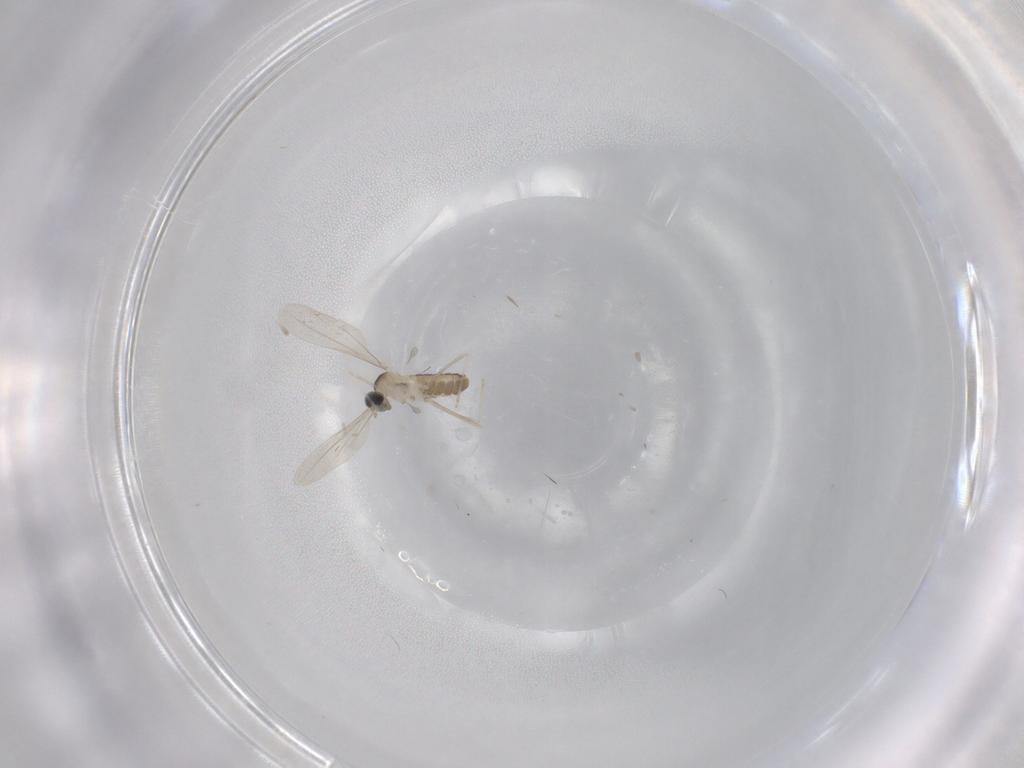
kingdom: Animalia
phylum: Arthropoda
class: Insecta
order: Diptera
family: Cecidomyiidae
